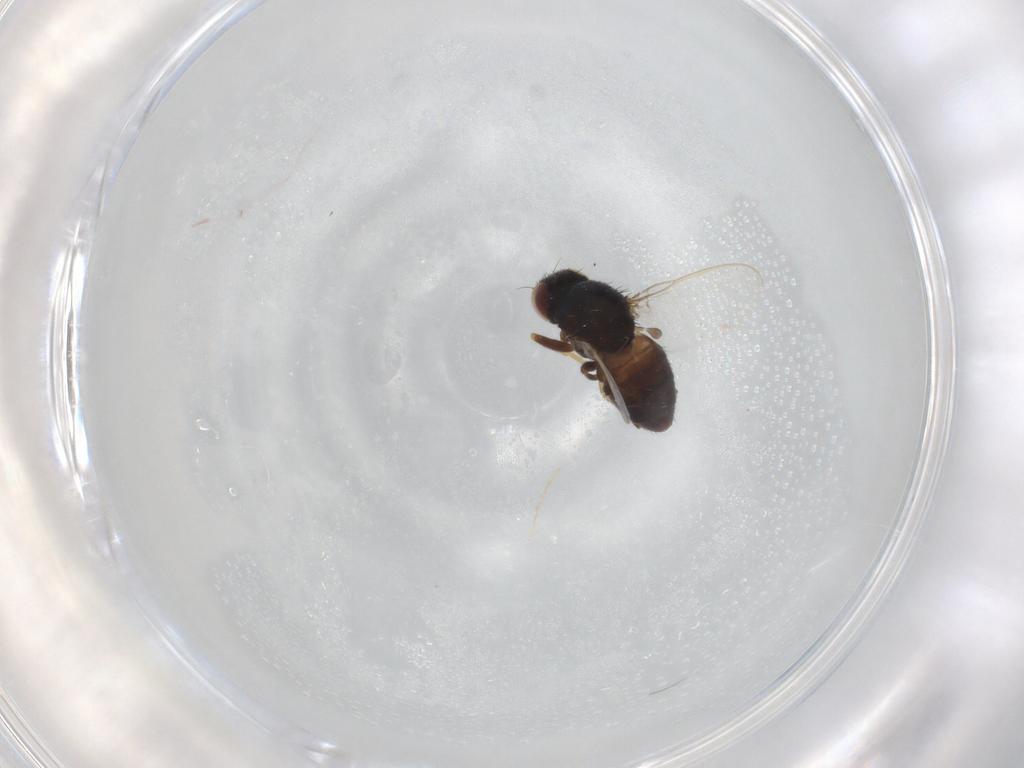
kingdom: Animalia
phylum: Arthropoda
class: Insecta
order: Diptera
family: Chloropidae
